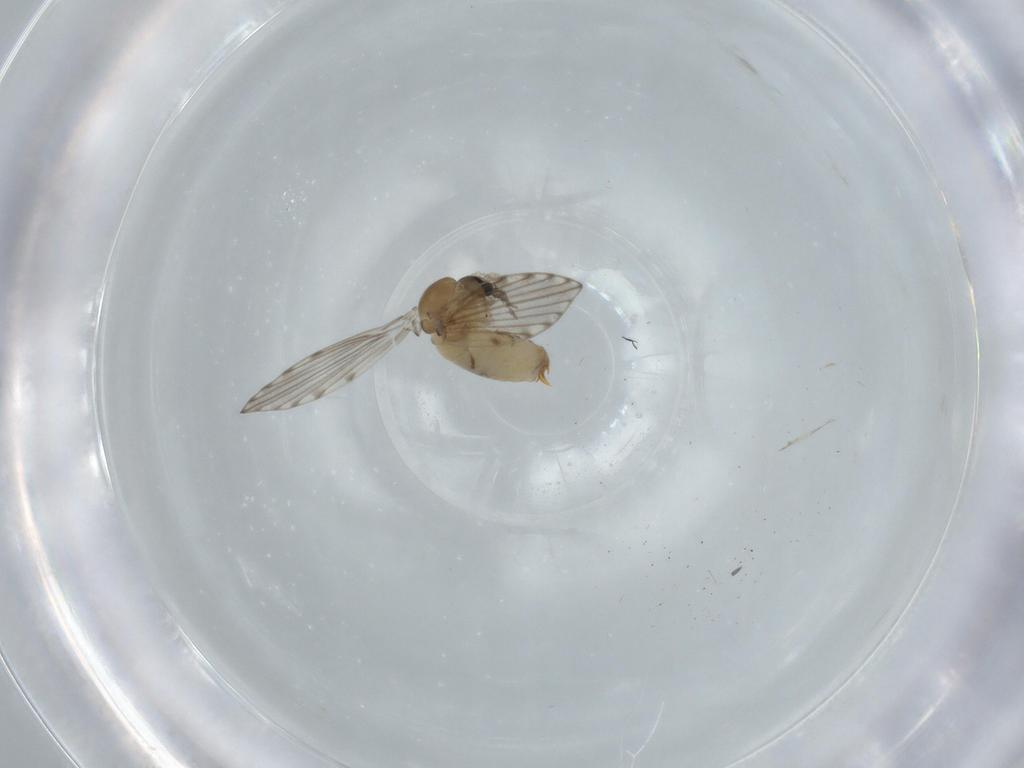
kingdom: Animalia
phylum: Arthropoda
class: Insecta
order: Diptera
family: Psychodidae
